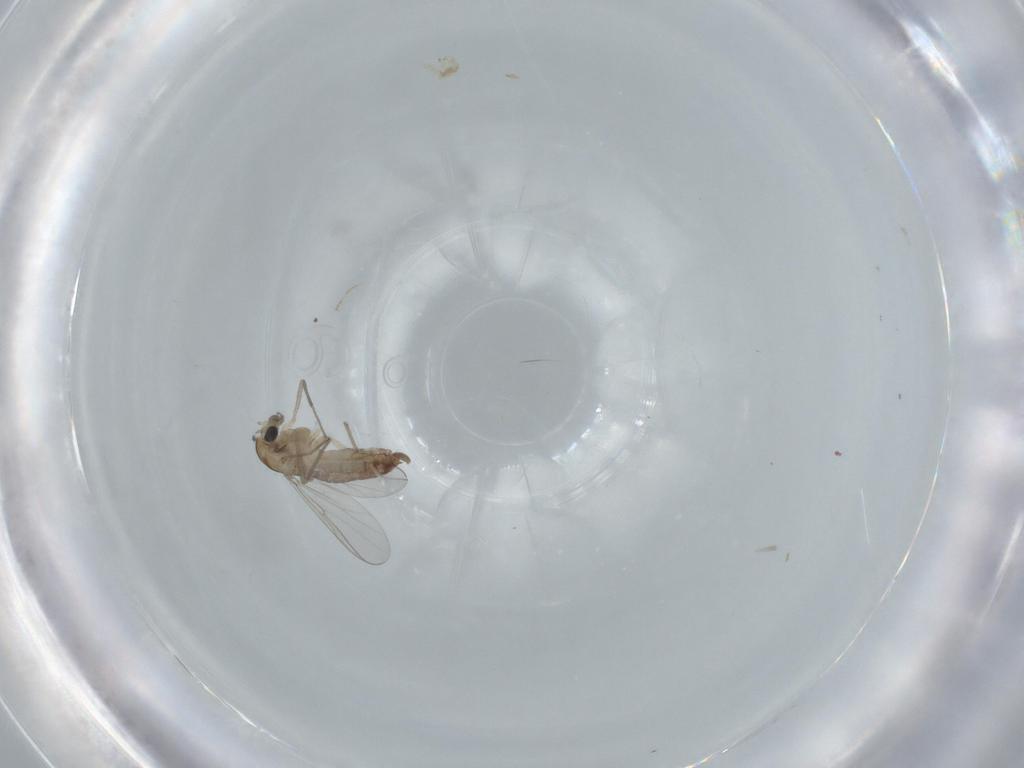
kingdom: Animalia
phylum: Arthropoda
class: Insecta
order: Diptera
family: Chironomidae
